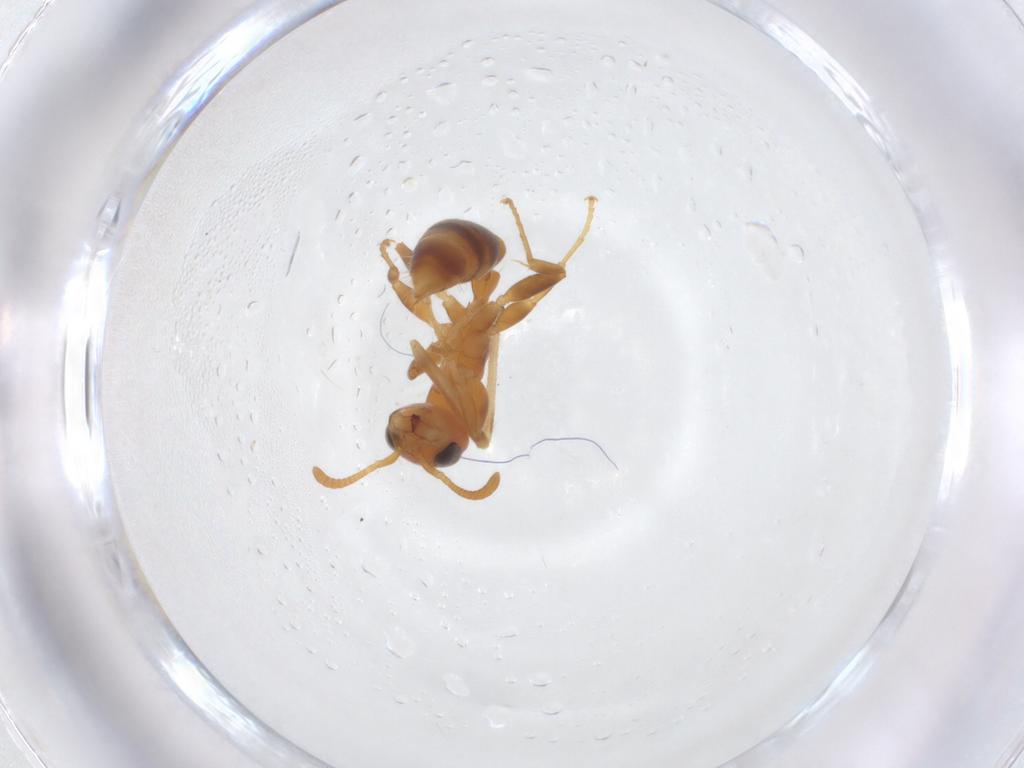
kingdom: Animalia
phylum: Arthropoda
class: Insecta
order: Hymenoptera
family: Formicidae
